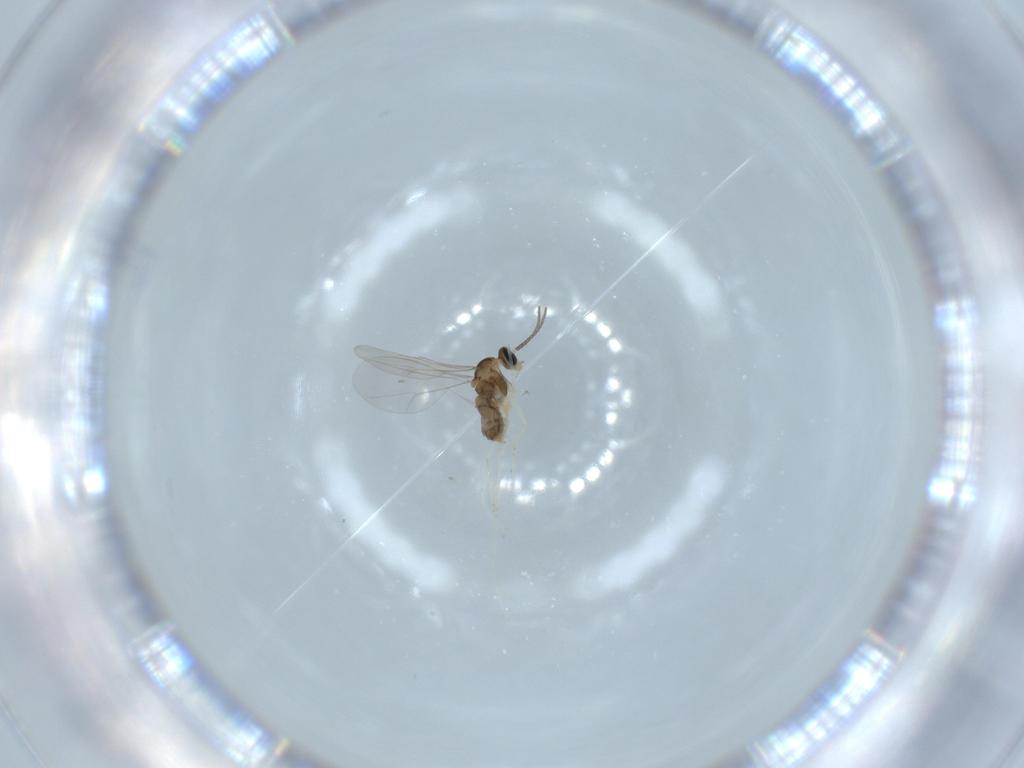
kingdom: Animalia
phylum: Arthropoda
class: Insecta
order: Diptera
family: Cecidomyiidae
